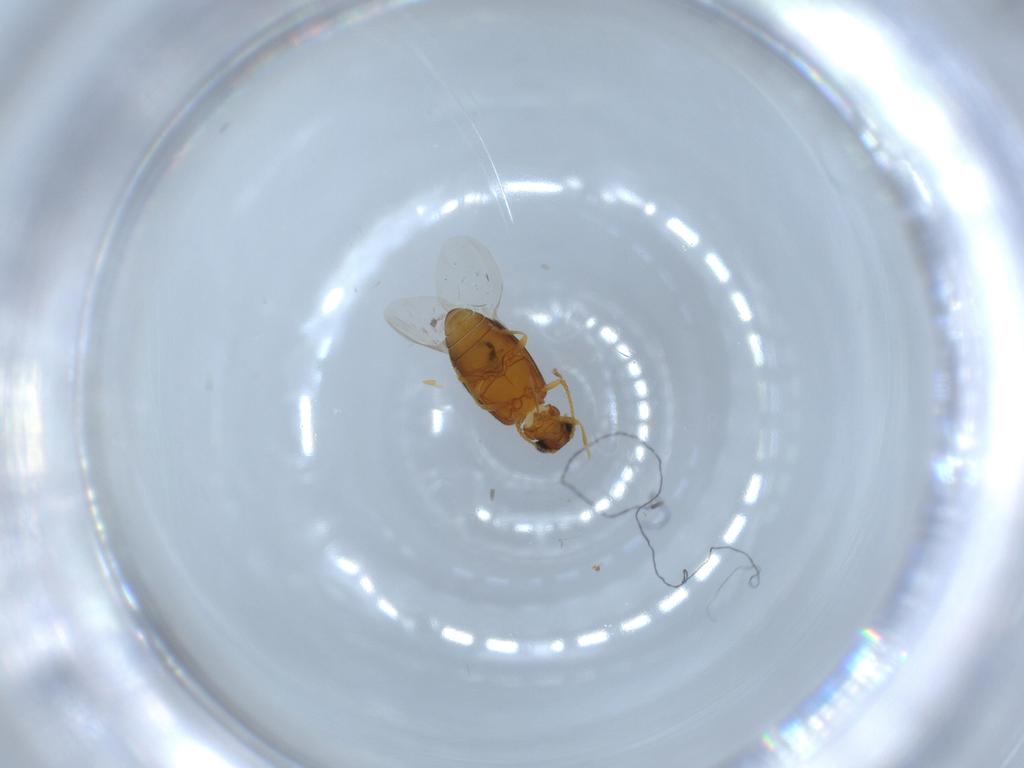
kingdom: Animalia
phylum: Arthropoda
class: Insecta
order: Coleoptera
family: Aderidae
